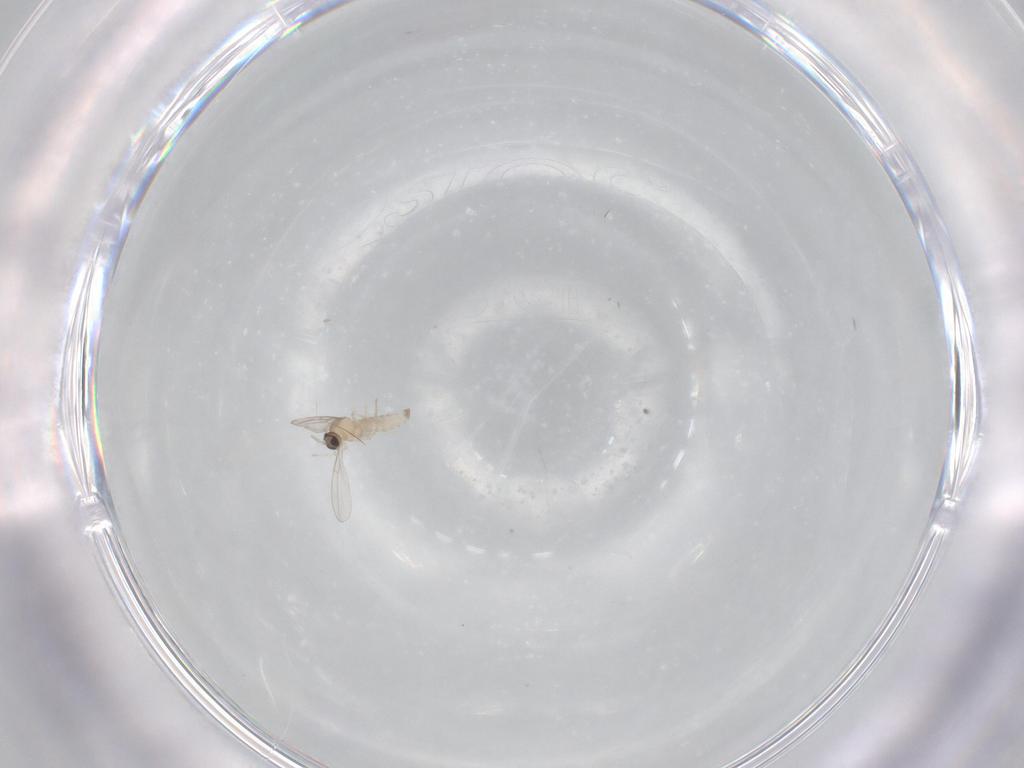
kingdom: Animalia
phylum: Arthropoda
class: Insecta
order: Diptera
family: Phoridae
